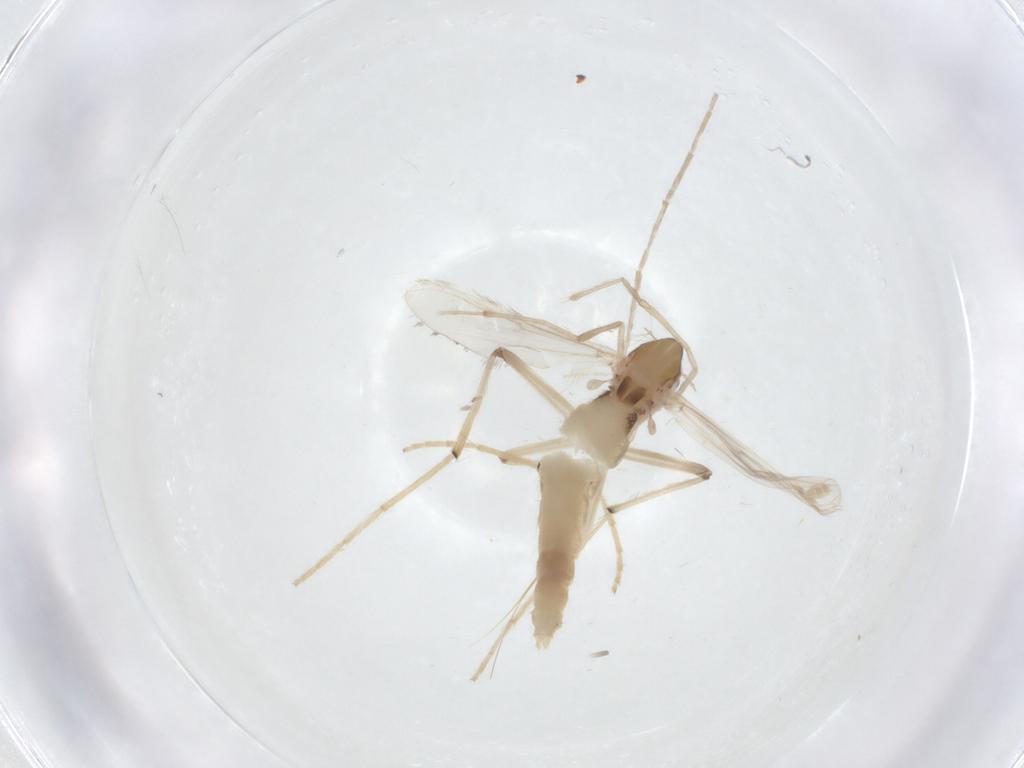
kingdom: Animalia
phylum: Arthropoda
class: Insecta
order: Diptera
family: Chironomidae
